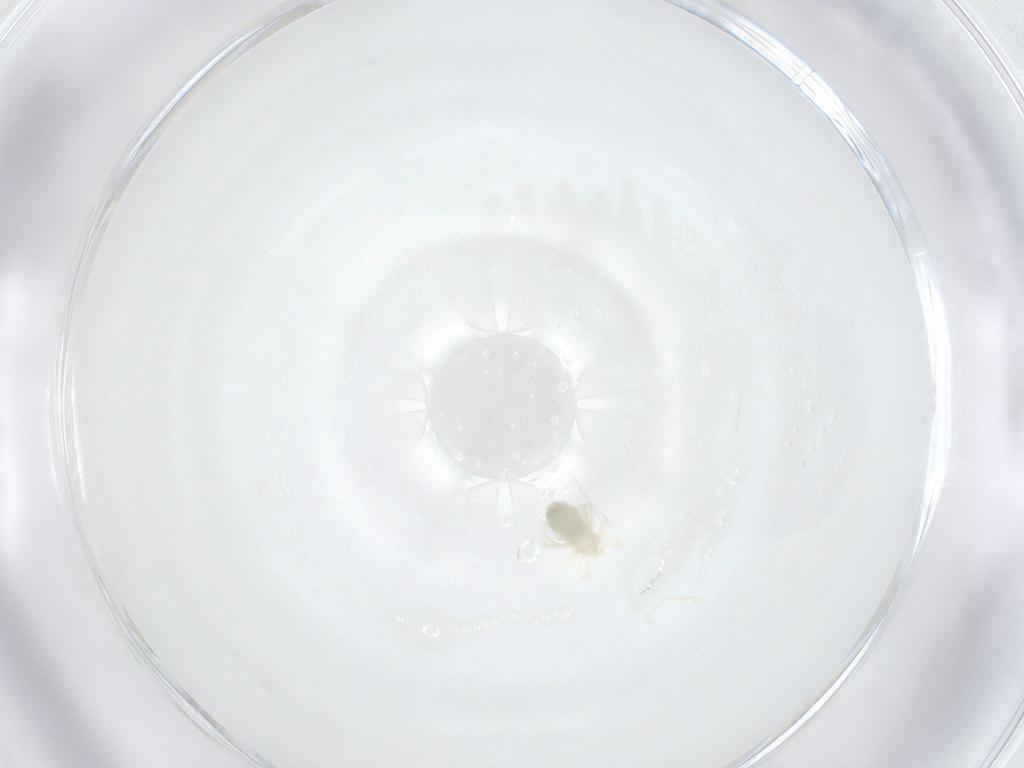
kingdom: Animalia
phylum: Arthropoda
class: Arachnida
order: Trombidiformes
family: Anystidae
